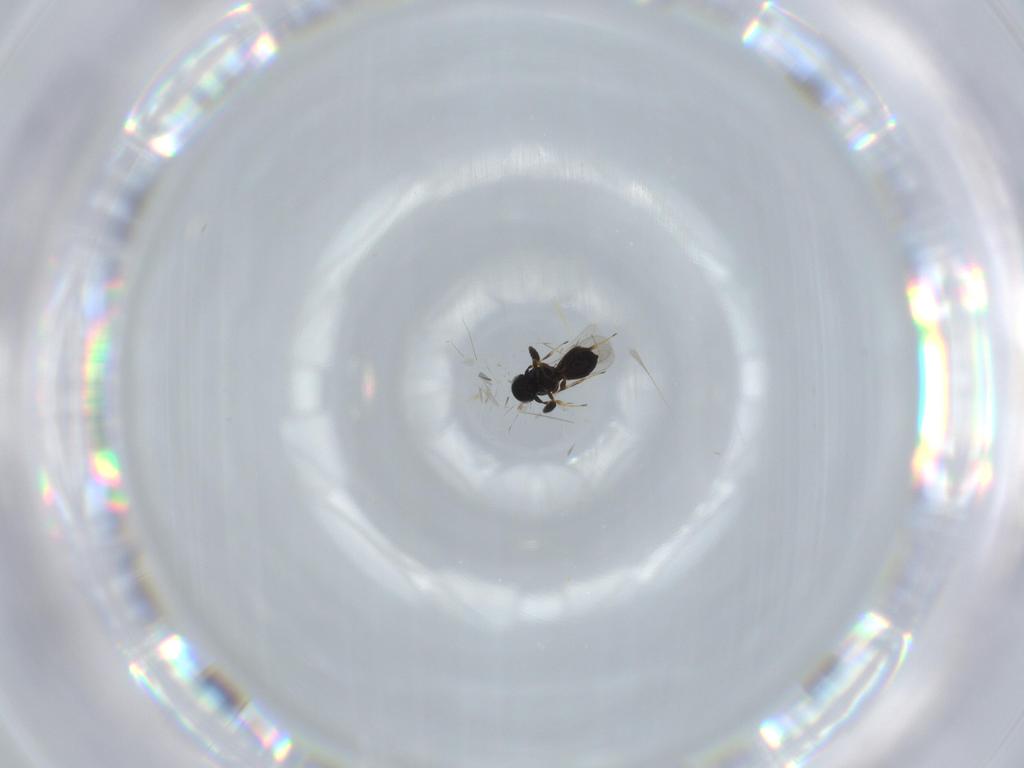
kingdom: Animalia
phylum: Arthropoda
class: Insecta
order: Hymenoptera
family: Scelionidae
